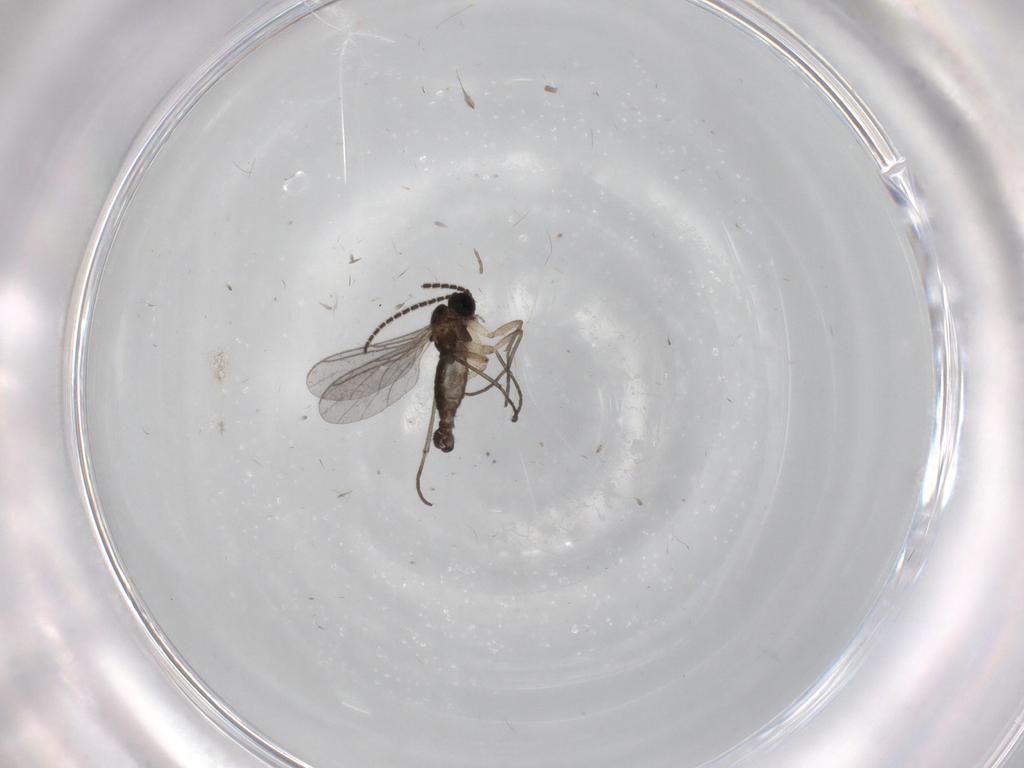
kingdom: Animalia
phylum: Arthropoda
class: Insecta
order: Diptera
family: Sciaridae
